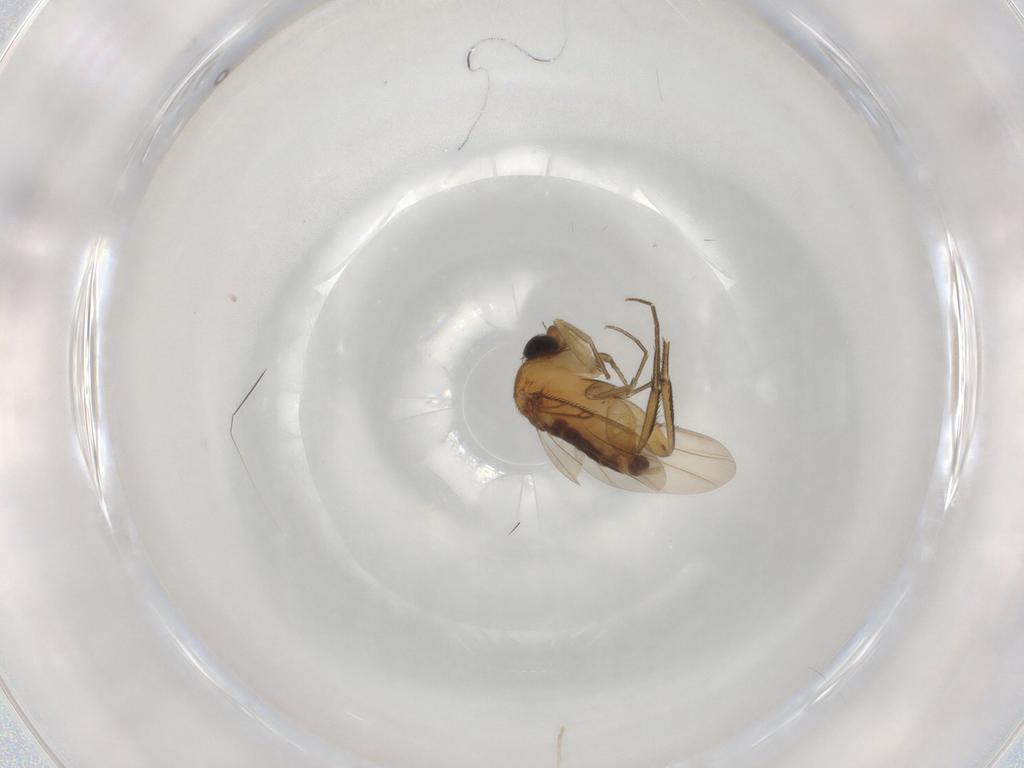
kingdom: Animalia
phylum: Arthropoda
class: Insecta
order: Diptera
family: Phoridae
